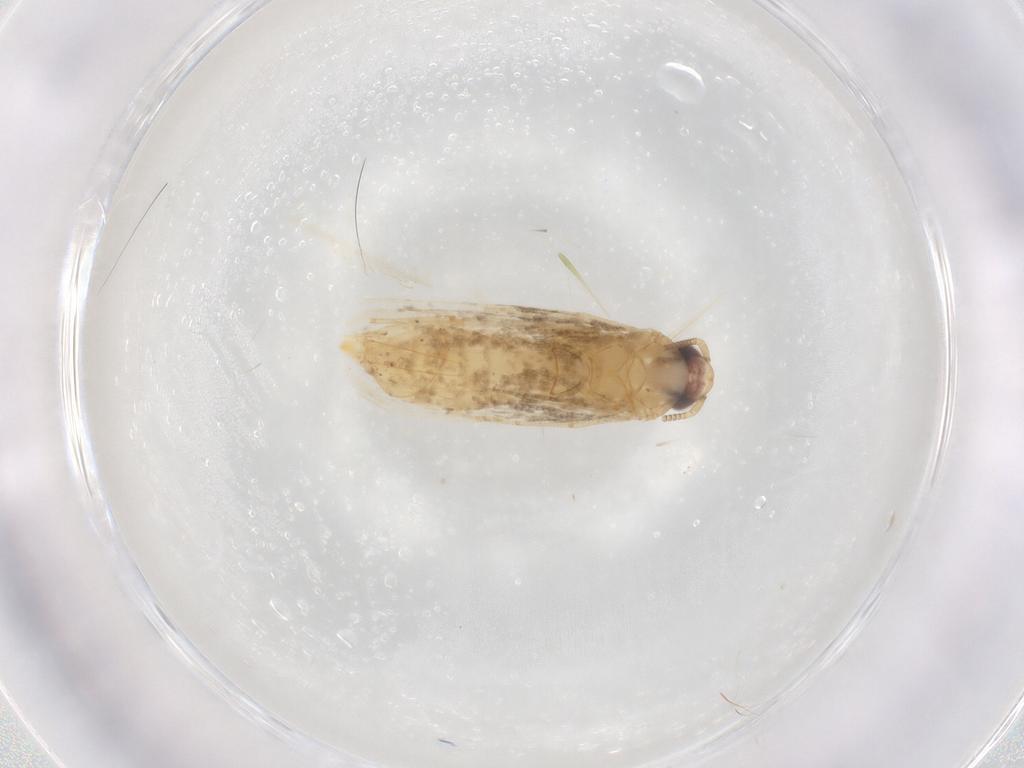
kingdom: Animalia
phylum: Arthropoda
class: Insecta
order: Lepidoptera
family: Tineidae
